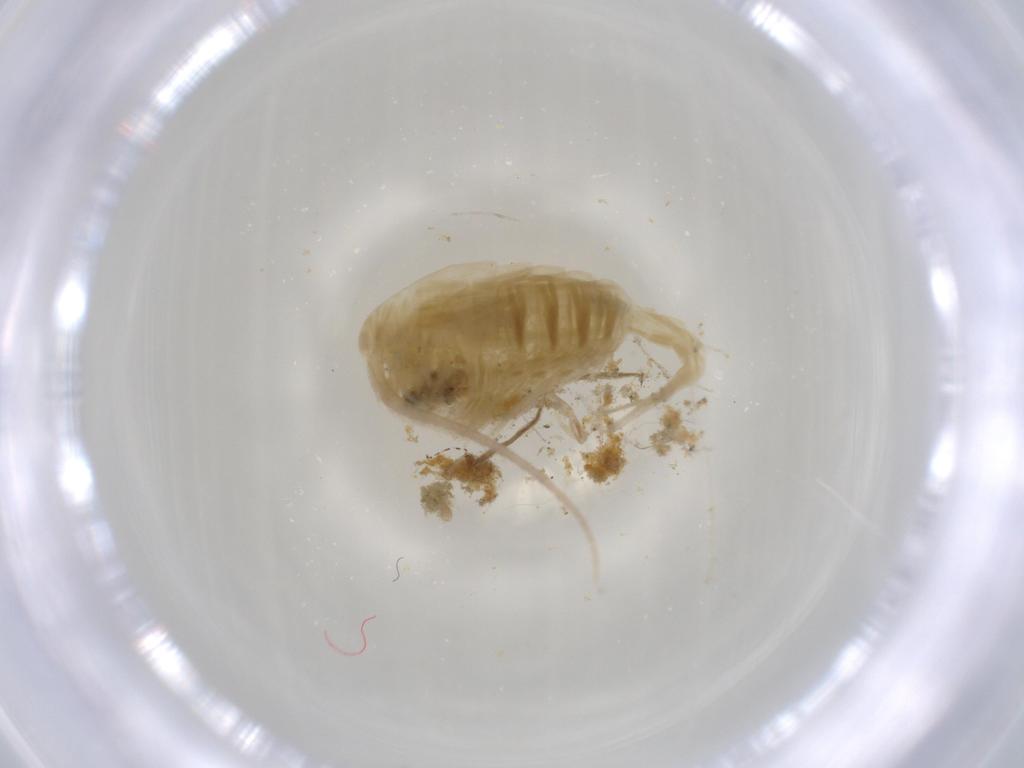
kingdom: Animalia
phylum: Arthropoda
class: Copepoda
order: Calanoida
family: Temoridae
